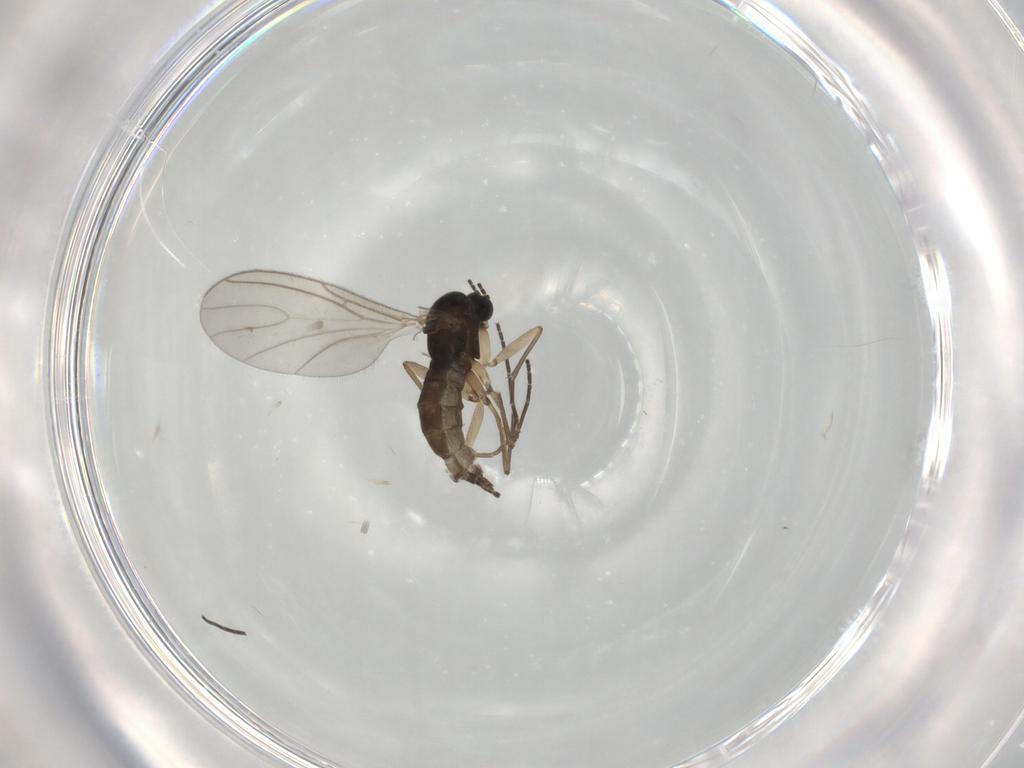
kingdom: Animalia
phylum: Arthropoda
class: Insecta
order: Diptera
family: Sciaridae
